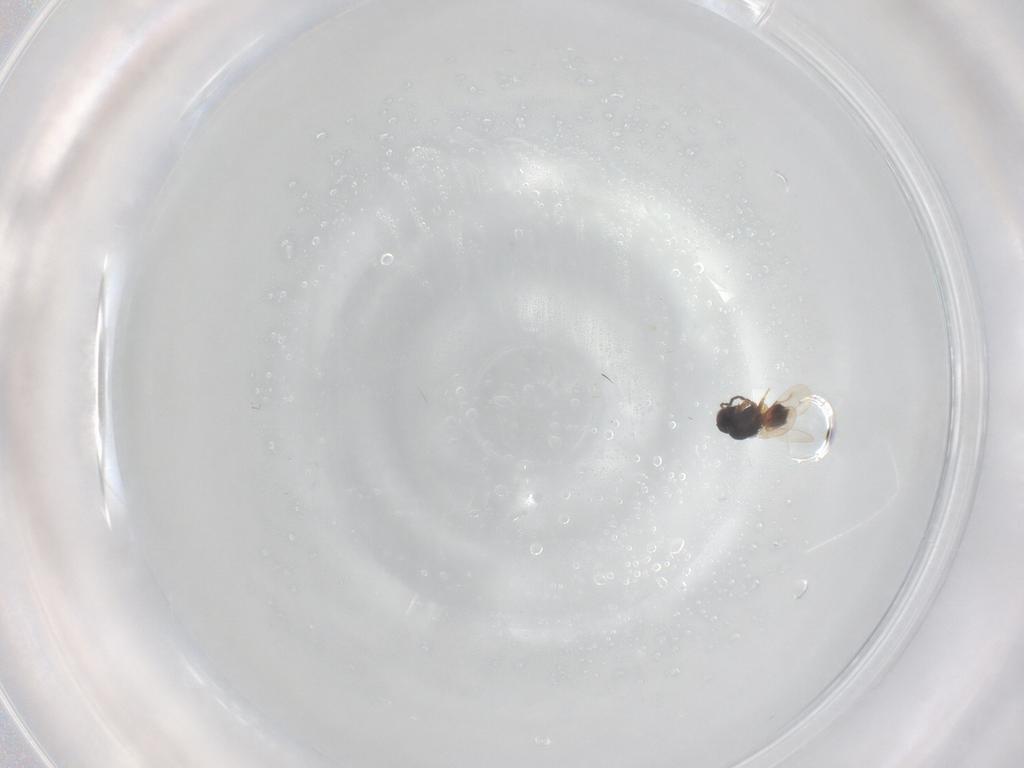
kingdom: Animalia
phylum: Arthropoda
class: Insecta
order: Hymenoptera
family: Ceraphronidae
